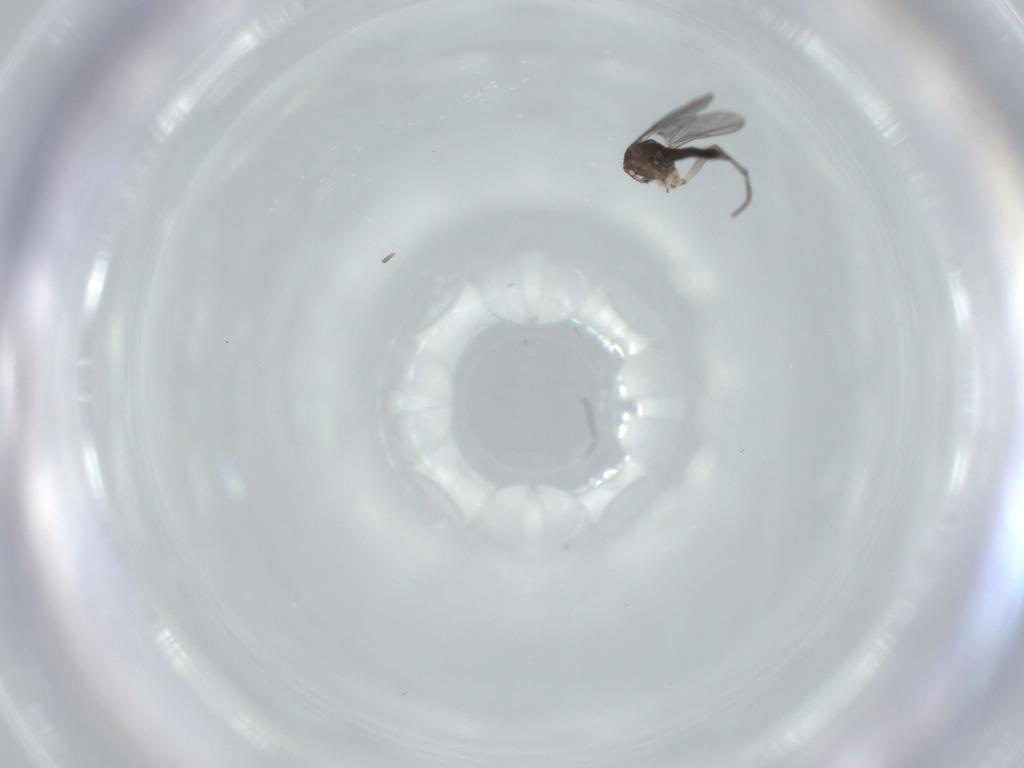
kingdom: Animalia
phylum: Arthropoda
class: Insecta
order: Diptera
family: Sciaridae
